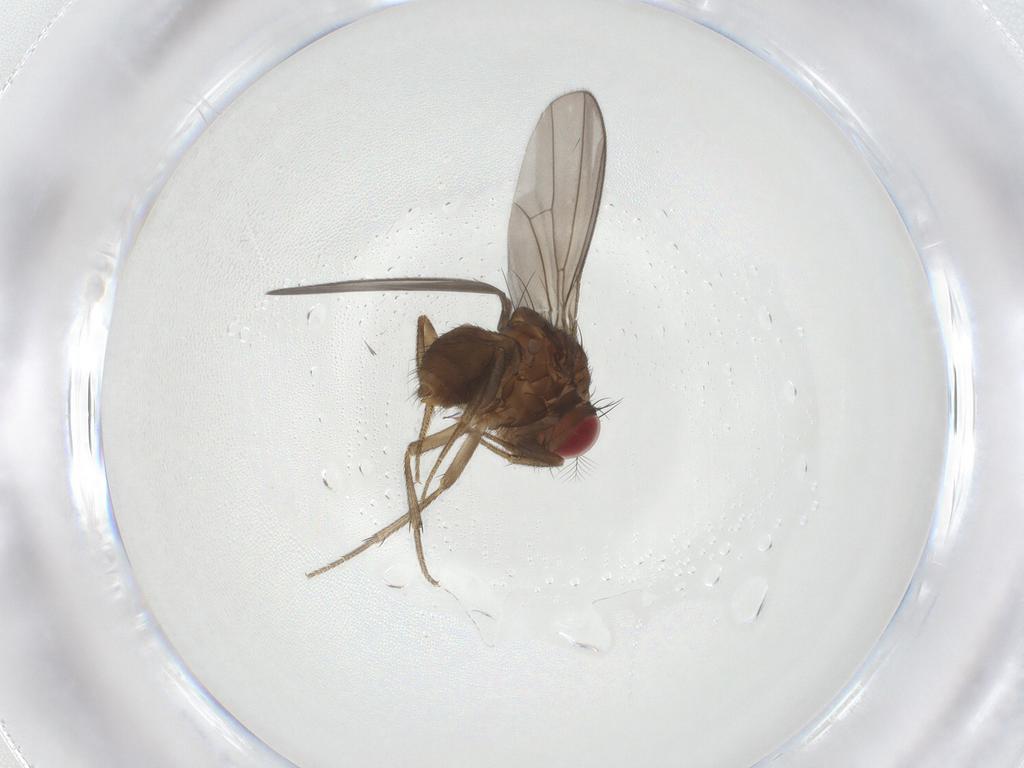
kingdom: Animalia
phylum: Arthropoda
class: Insecta
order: Diptera
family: Drosophilidae
